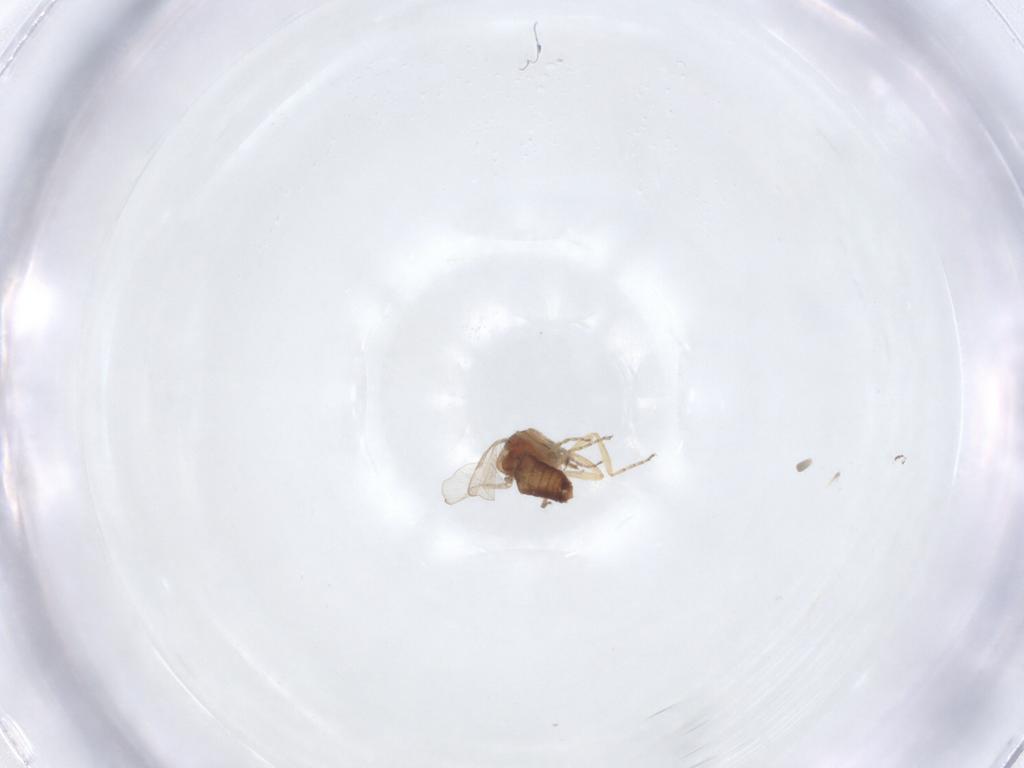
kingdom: Animalia
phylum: Arthropoda
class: Insecta
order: Diptera
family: Ceratopogonidae
